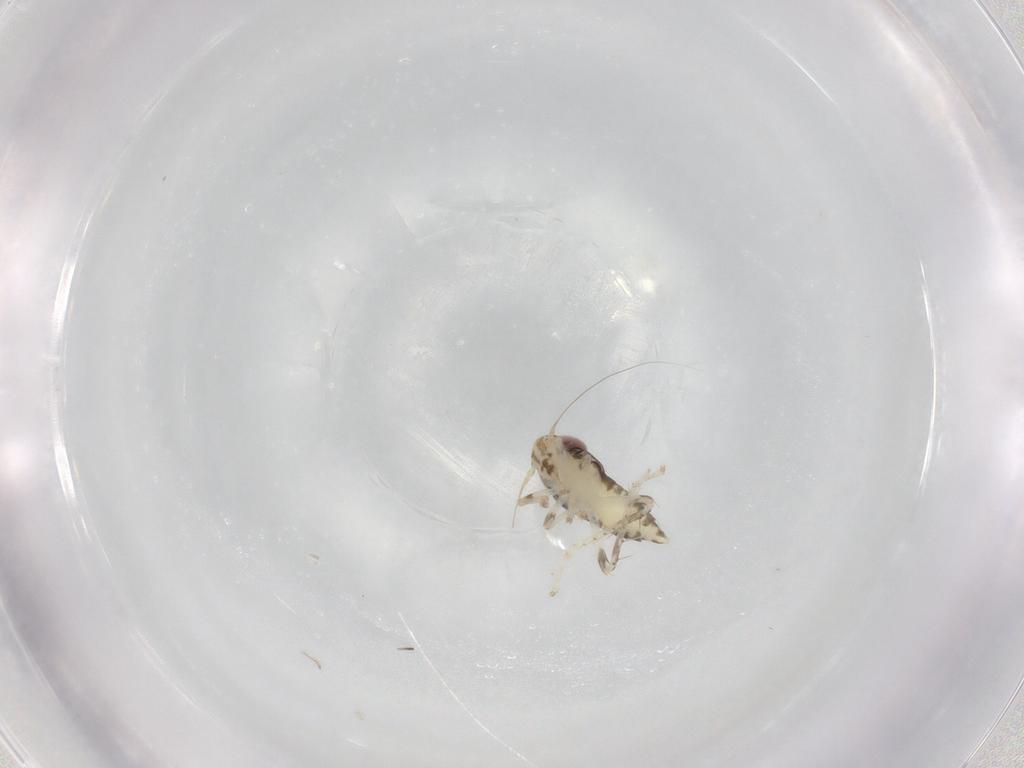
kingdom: Animalia
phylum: Arthropoda
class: Insecta
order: Hemiptera
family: Cicadellidae
